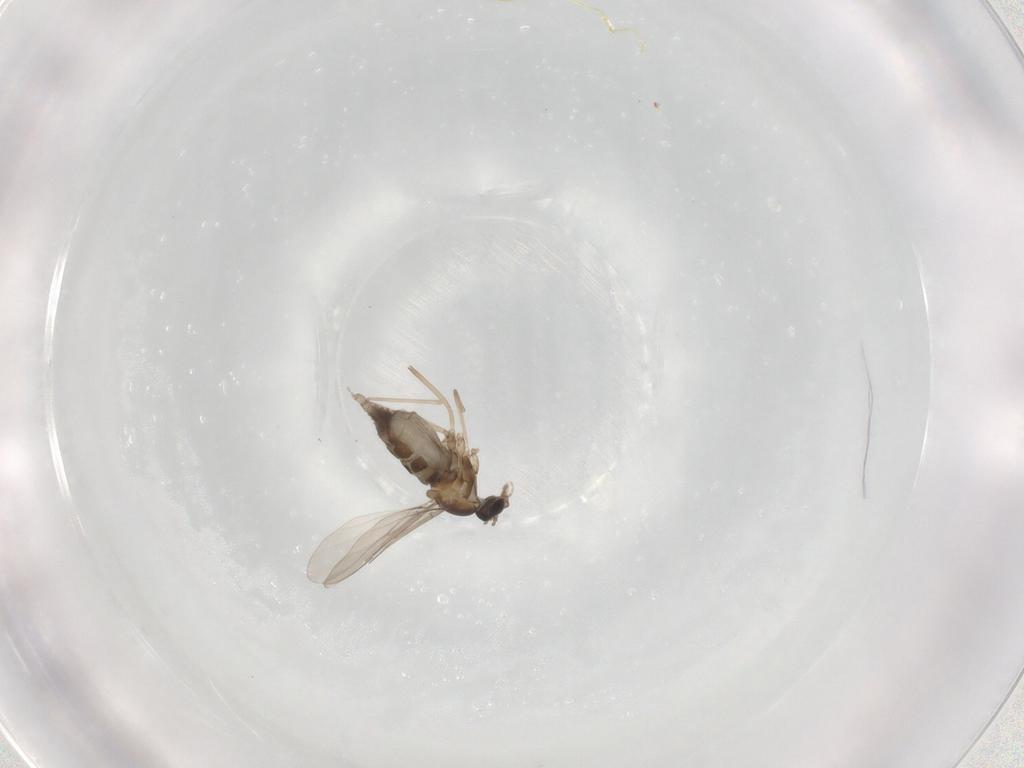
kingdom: Animalia
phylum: Arthropoda
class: Insecta
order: Diptera
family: Cecidomyiidae
